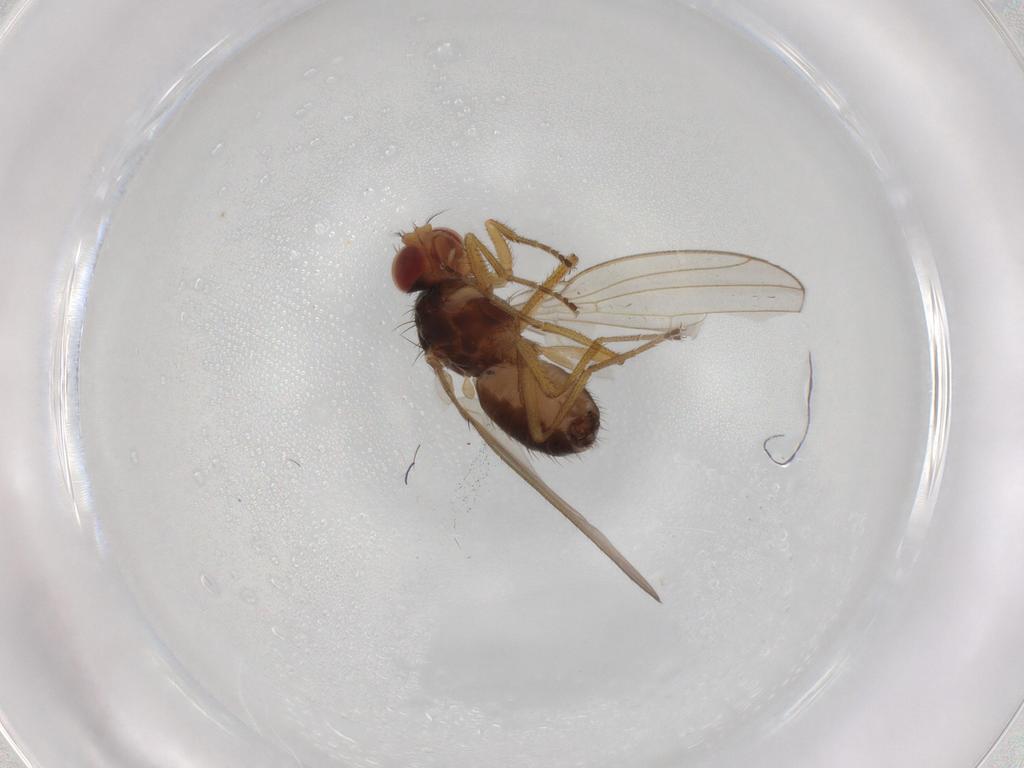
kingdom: Animalia
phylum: Arthropoda
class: Insecta
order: Diptera
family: Drosophilidae
